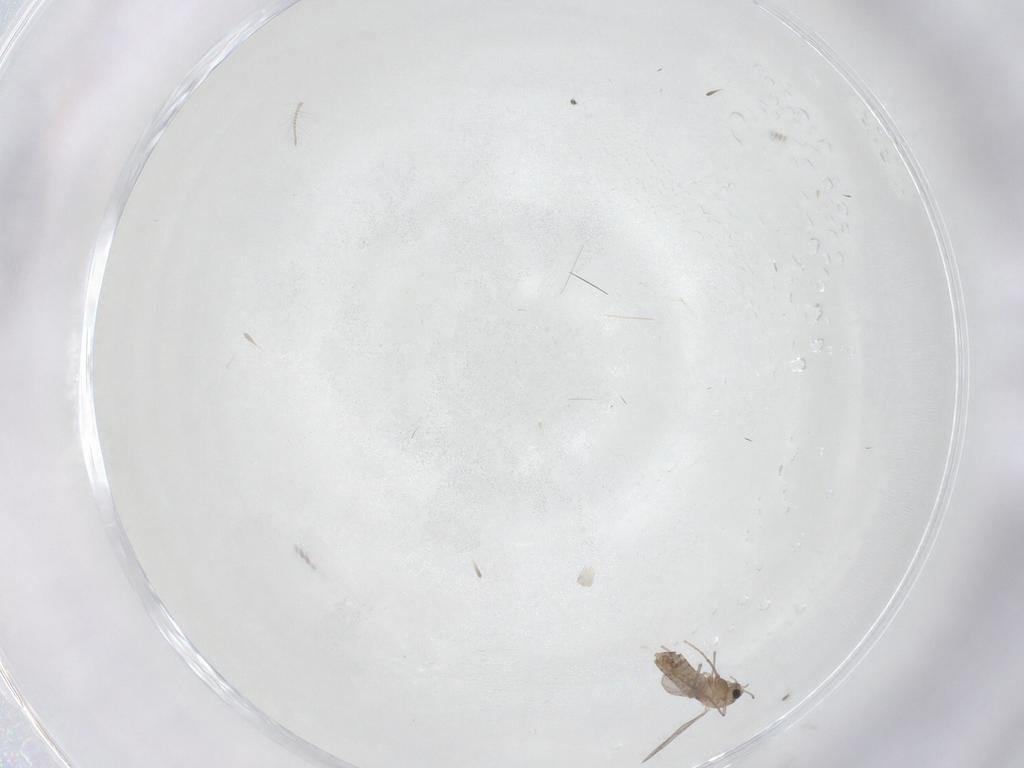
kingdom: Animalia
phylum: Arthropoda
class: Insecta
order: Diptera
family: Chironomidae
